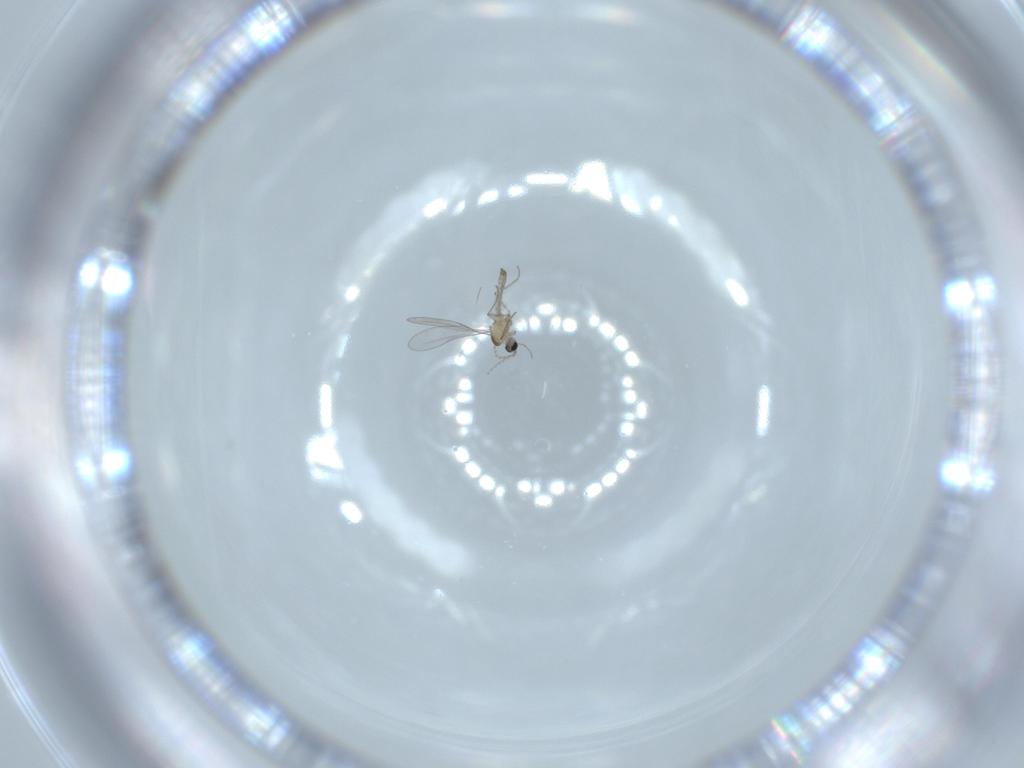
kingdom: Animalia
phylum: Arthropoda
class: Insecta
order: Diptera
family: Cecidomyiidae
